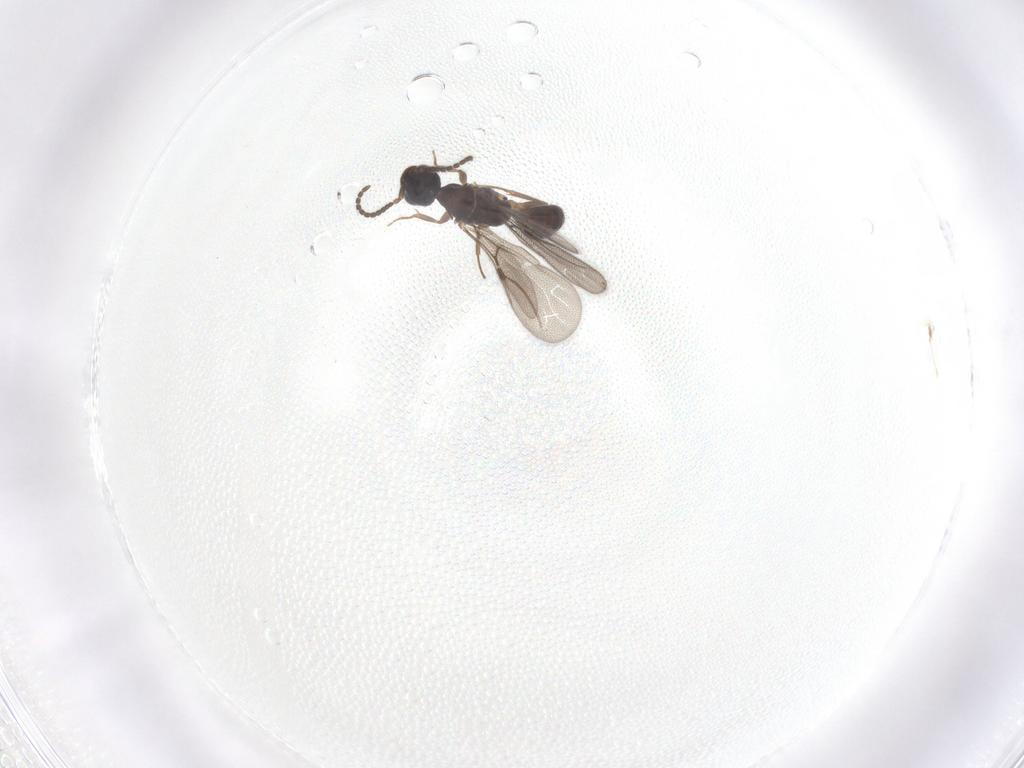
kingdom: Animalia
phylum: Arthropoda
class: Insecta
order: Hymenoptera
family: Bethylidae
